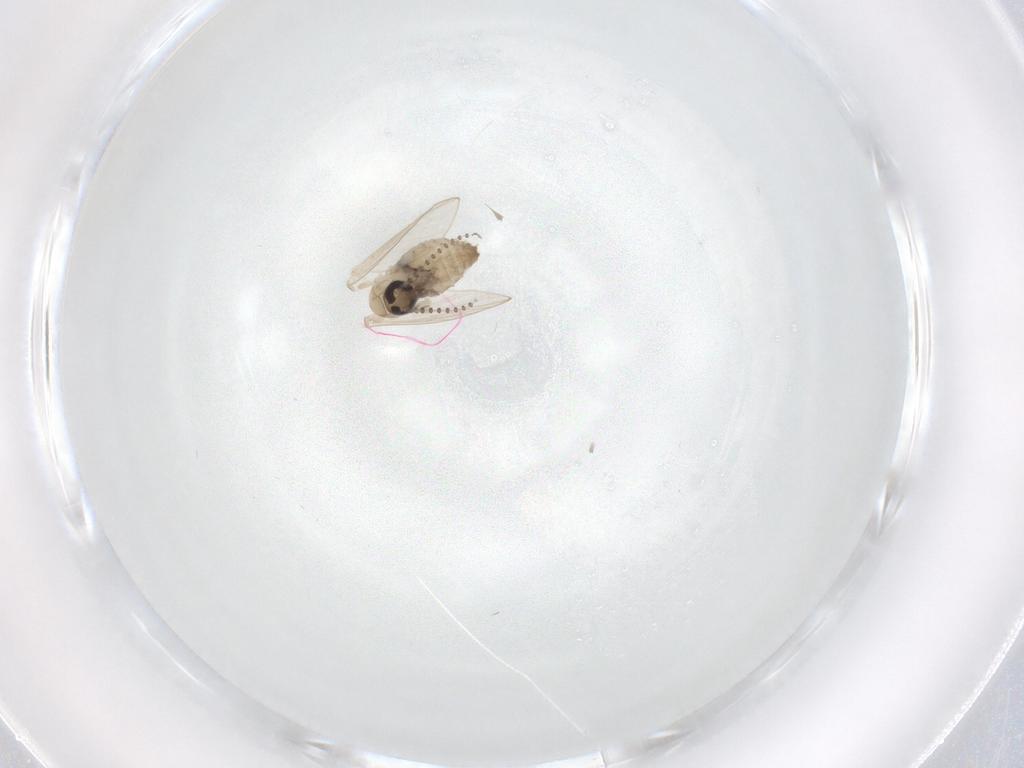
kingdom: Animalia
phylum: Arthropoda
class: Insecta
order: Diptera
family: Psychodidae
